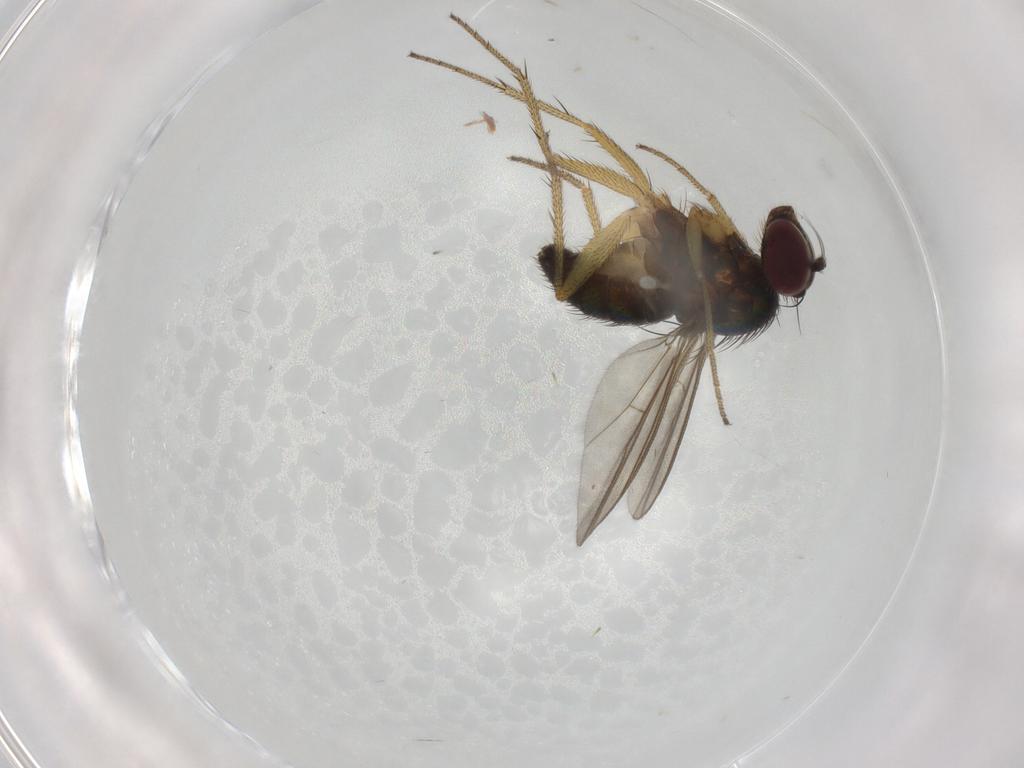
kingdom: Animalia
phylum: Arthropoda
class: Insecta
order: Diptera
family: Dolichopodidae
